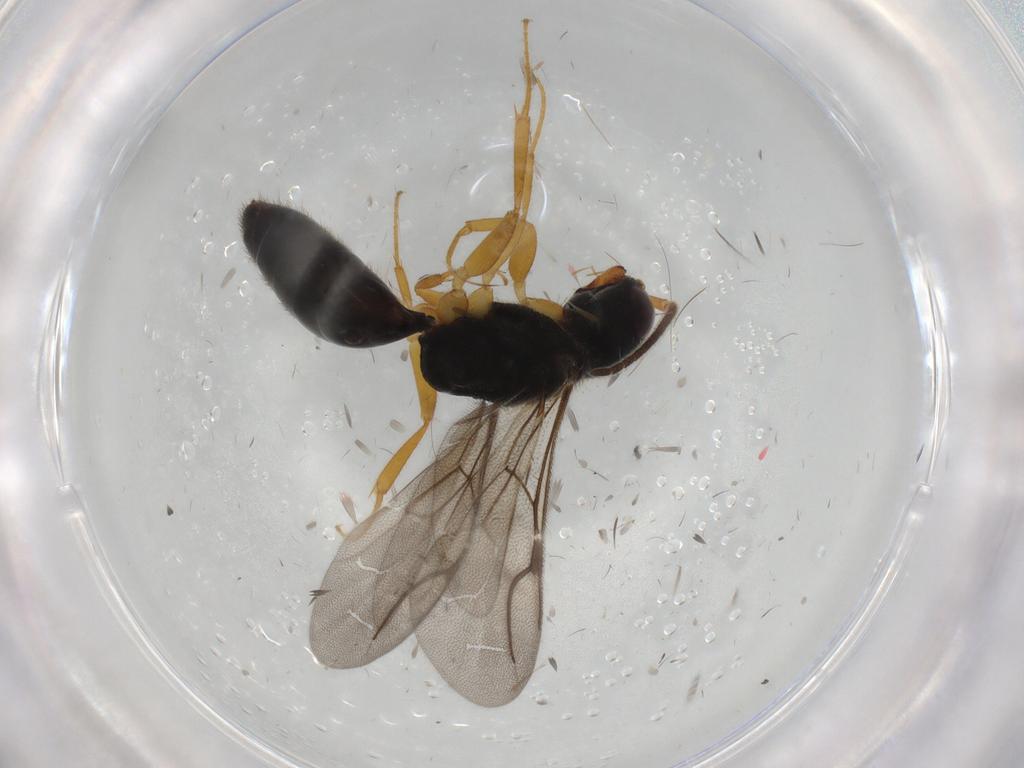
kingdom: Animalia
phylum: Arthropoda
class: Insecta
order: Hymenoptera
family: Bethylidae
